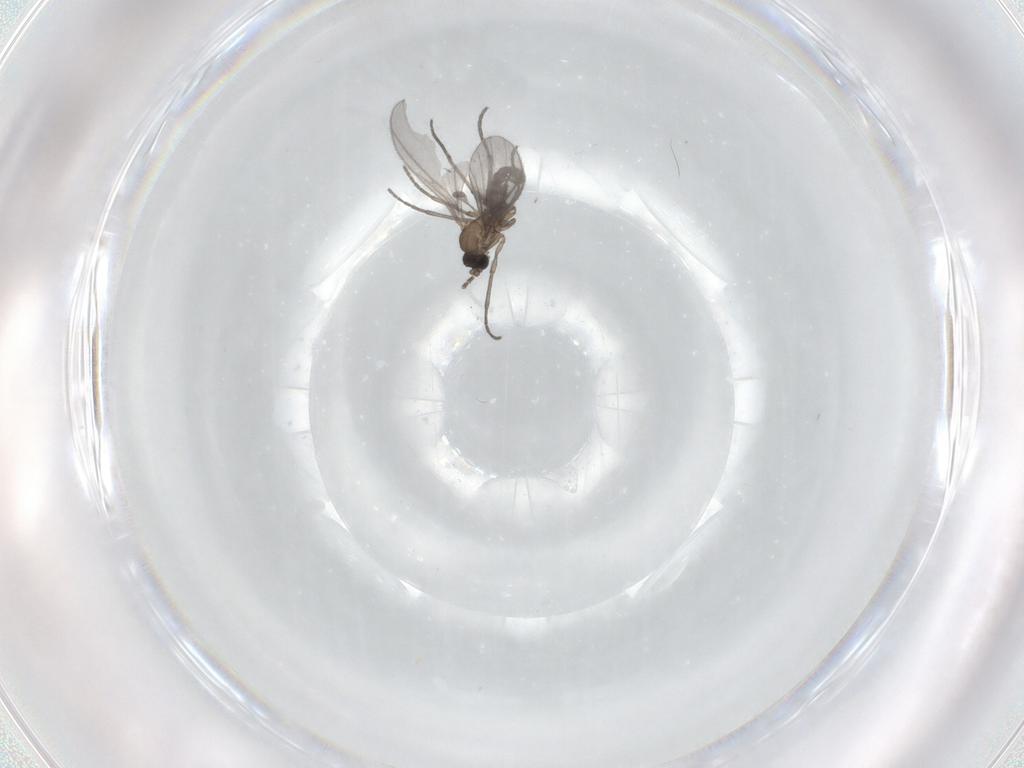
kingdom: Animalia
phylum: Arthropoda
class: Insecta
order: Diptera
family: Sciaridae
